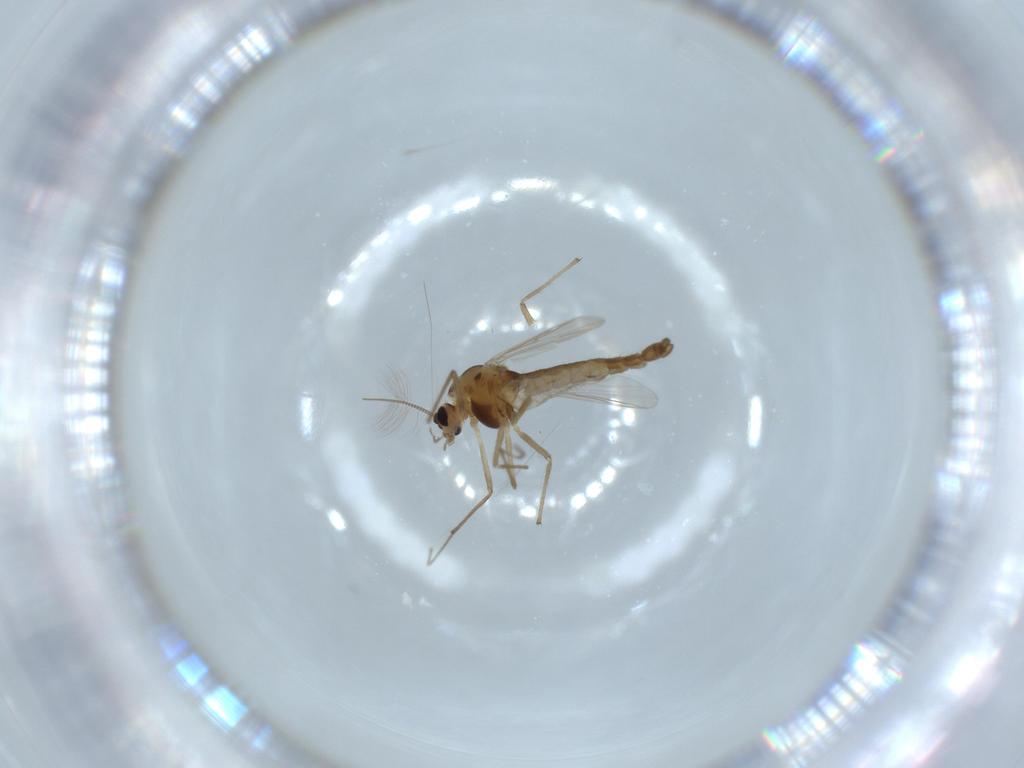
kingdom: Animalia
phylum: Arthropoda
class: Insecta
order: Diptera
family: Chironomidae
